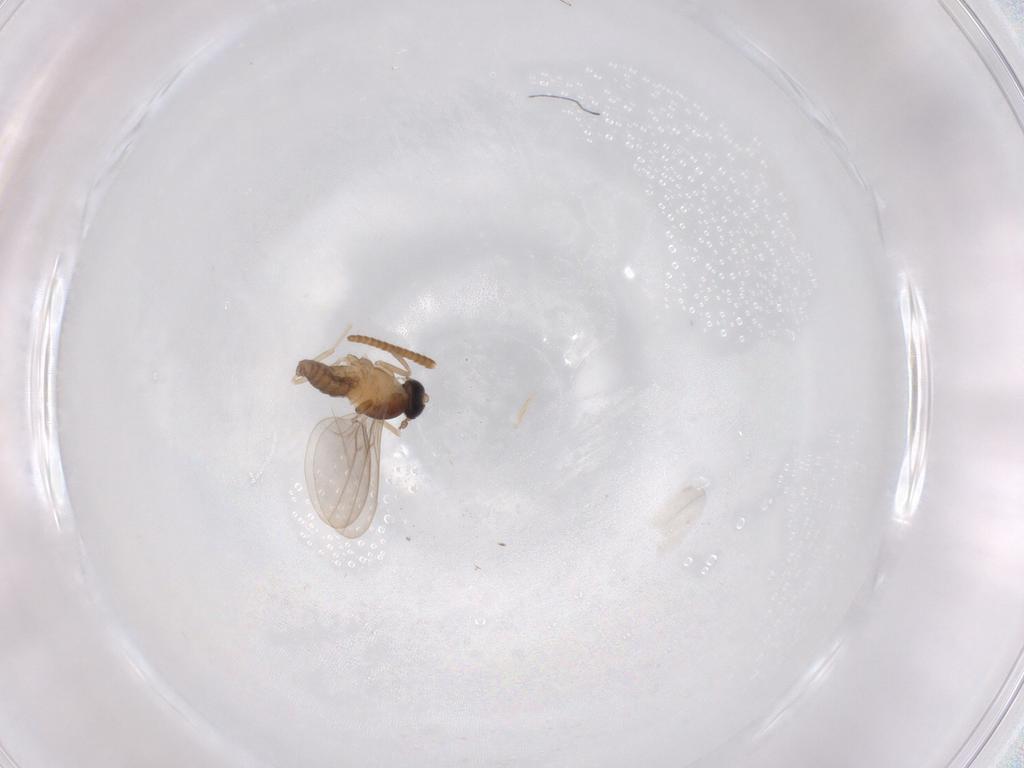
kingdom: Animalia
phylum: Arthropoda
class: Insecta
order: Diptera
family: Cecidomyiidae
